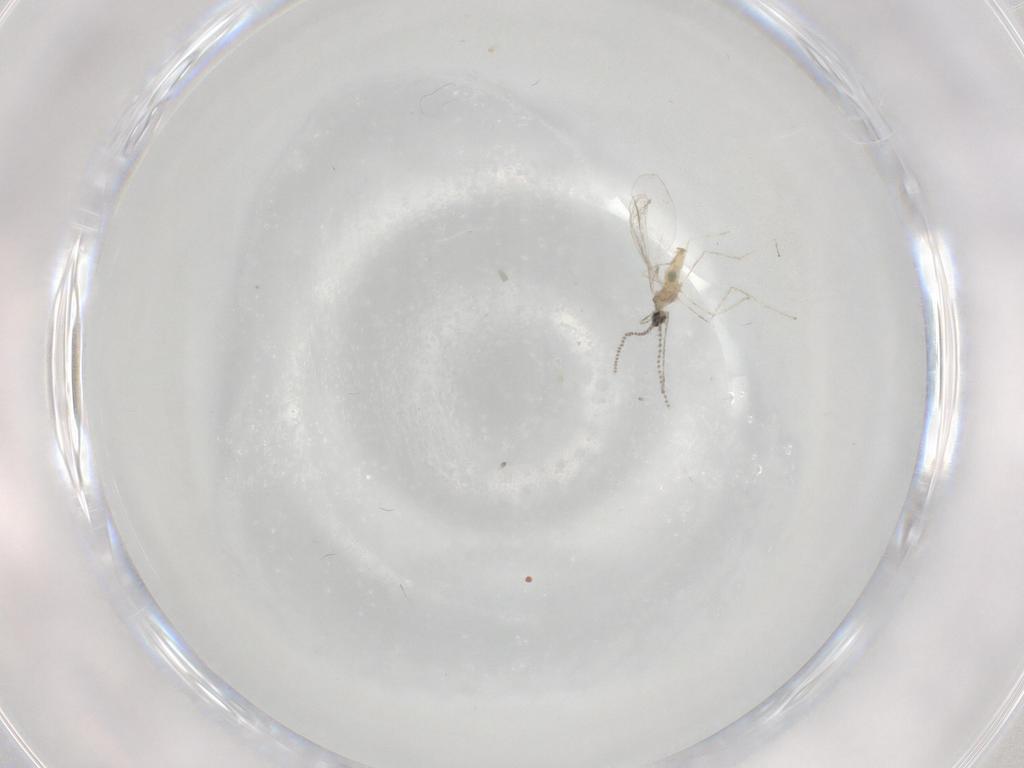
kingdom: Animalia
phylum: Arthropoda
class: Insecta
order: Diptera
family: Cecidomyiidae
